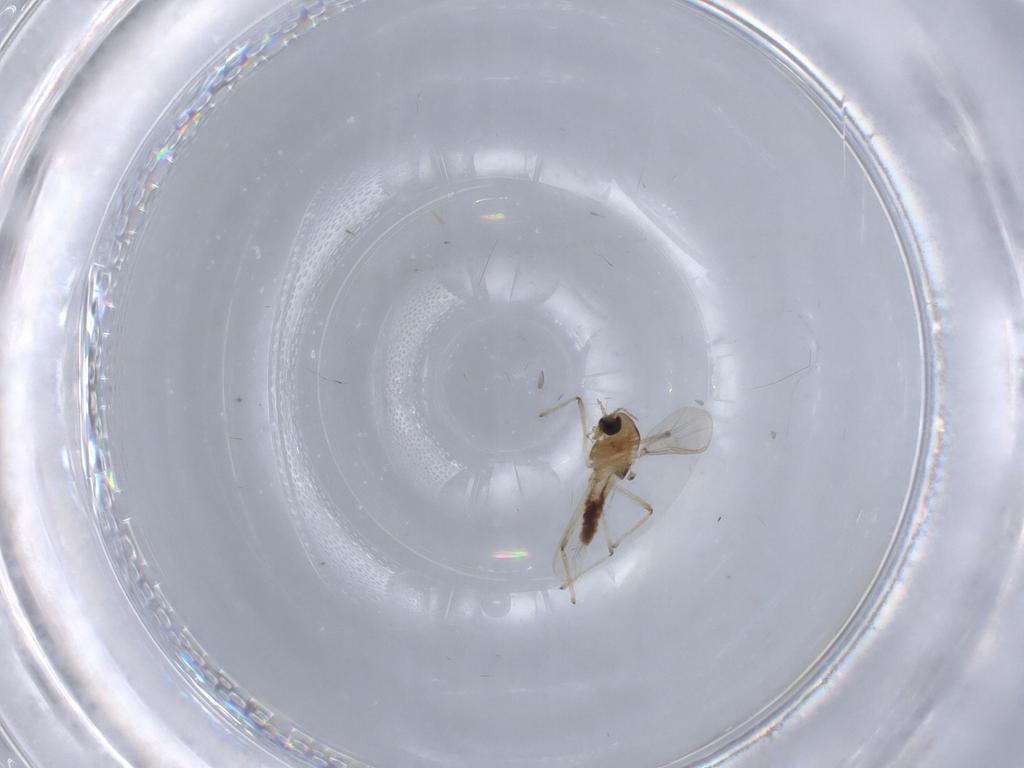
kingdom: Animalia
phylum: Arthropoda
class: Insecta
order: Diptera
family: Chironomidae
